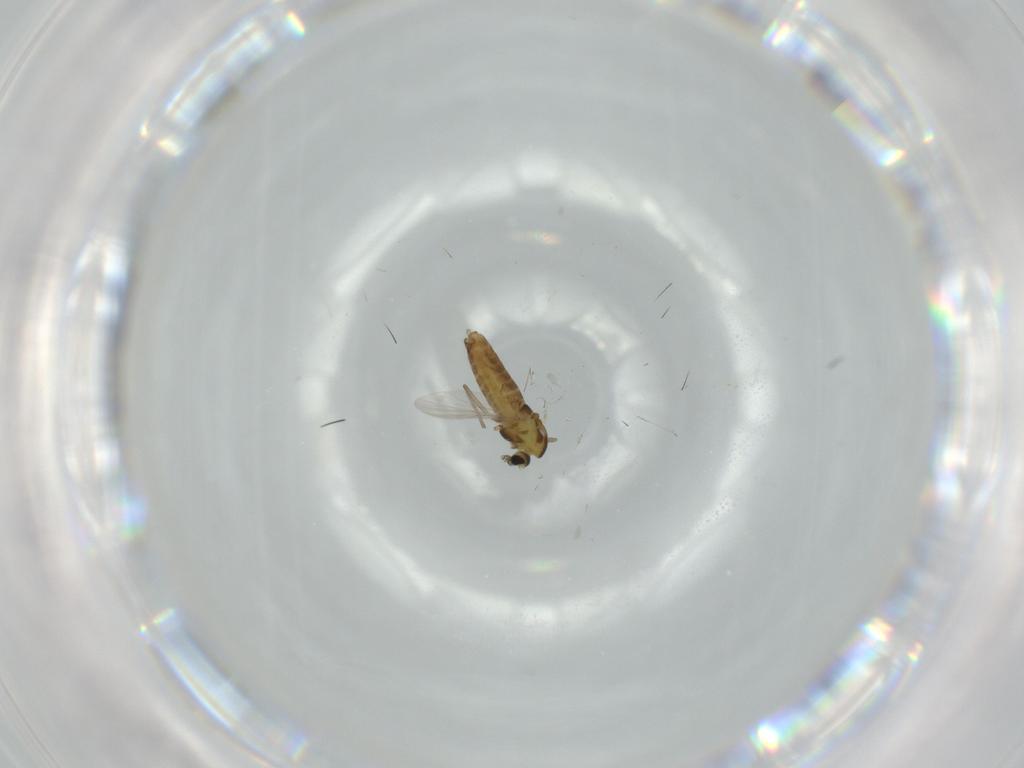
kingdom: Animalia
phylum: Arthropoda
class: Insecta
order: Diptera
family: Chironomidae
